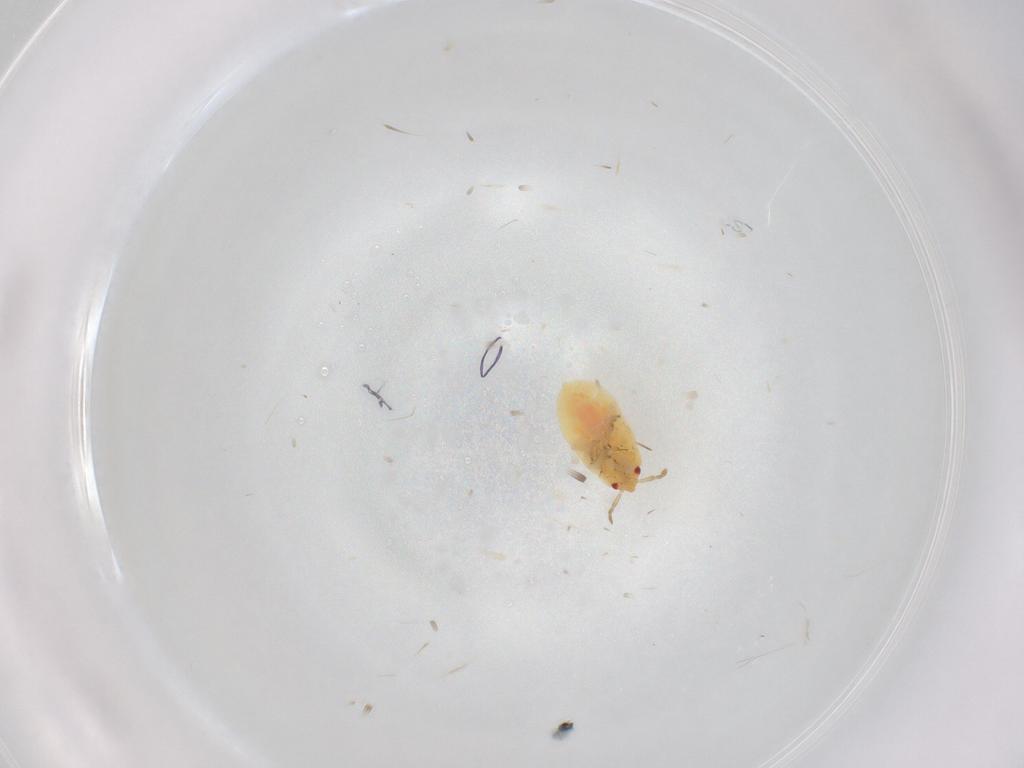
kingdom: Animalia
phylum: Arthropoda
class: Insecta
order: Hemiptera
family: Anthocoridae
